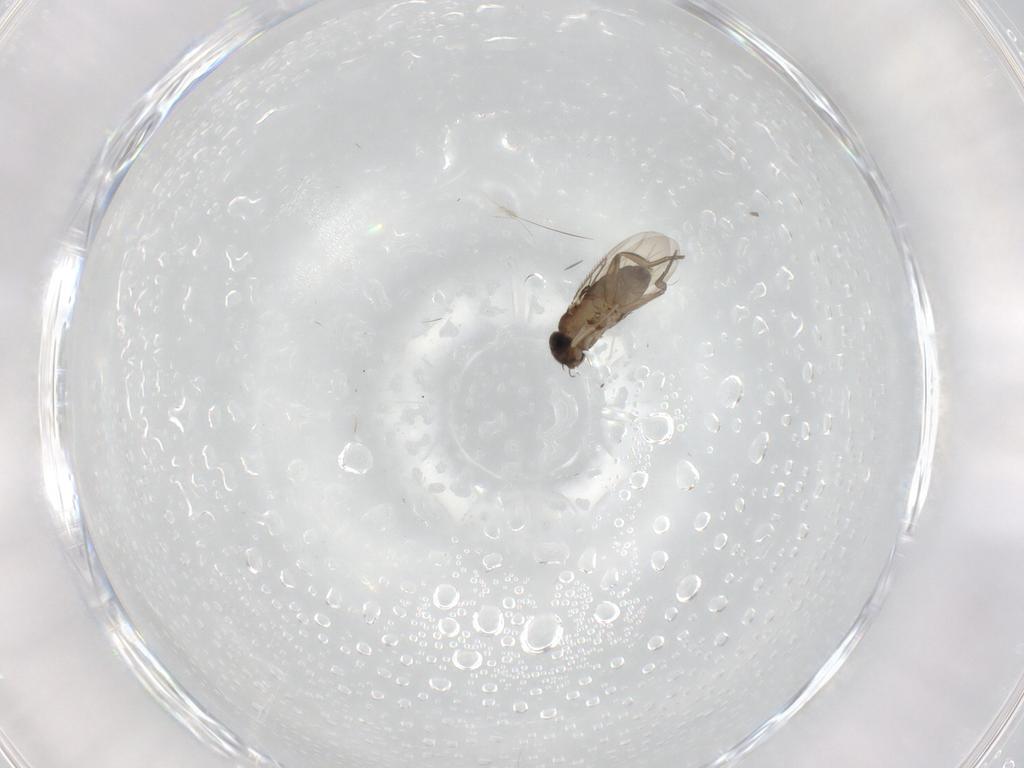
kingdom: Animalia
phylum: Arthropoda
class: Insecta
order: Diptera
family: Phoridae
